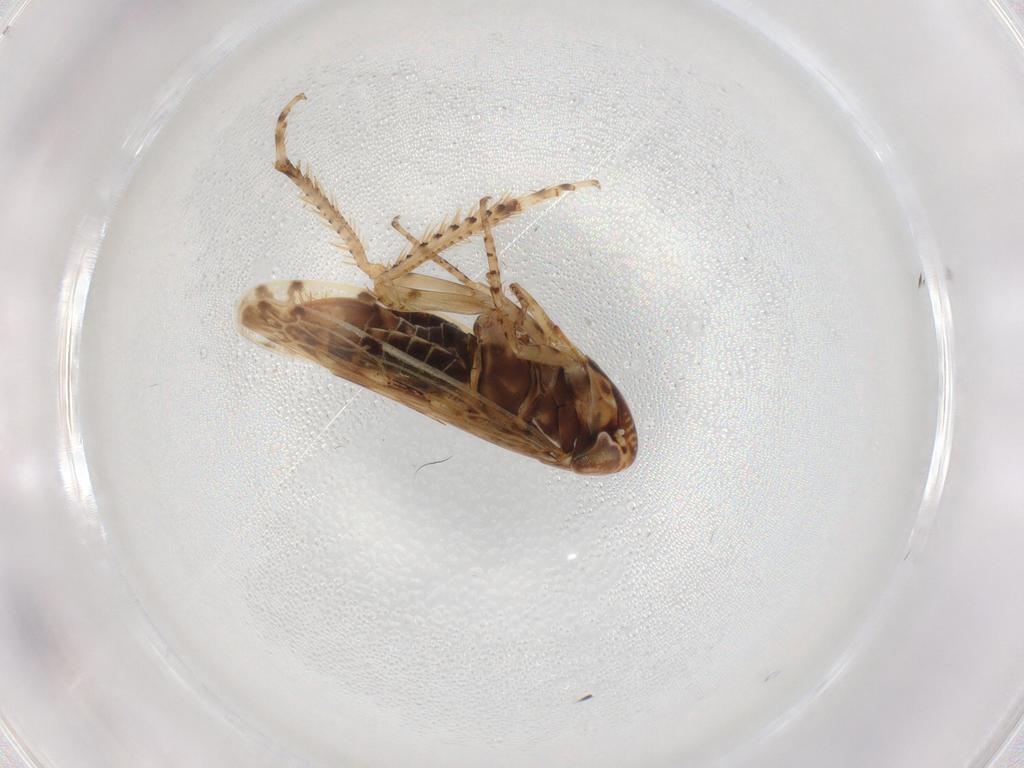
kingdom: Animalia
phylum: Arthropoda
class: Insecta
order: Hemiptera
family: Cicadellidae
